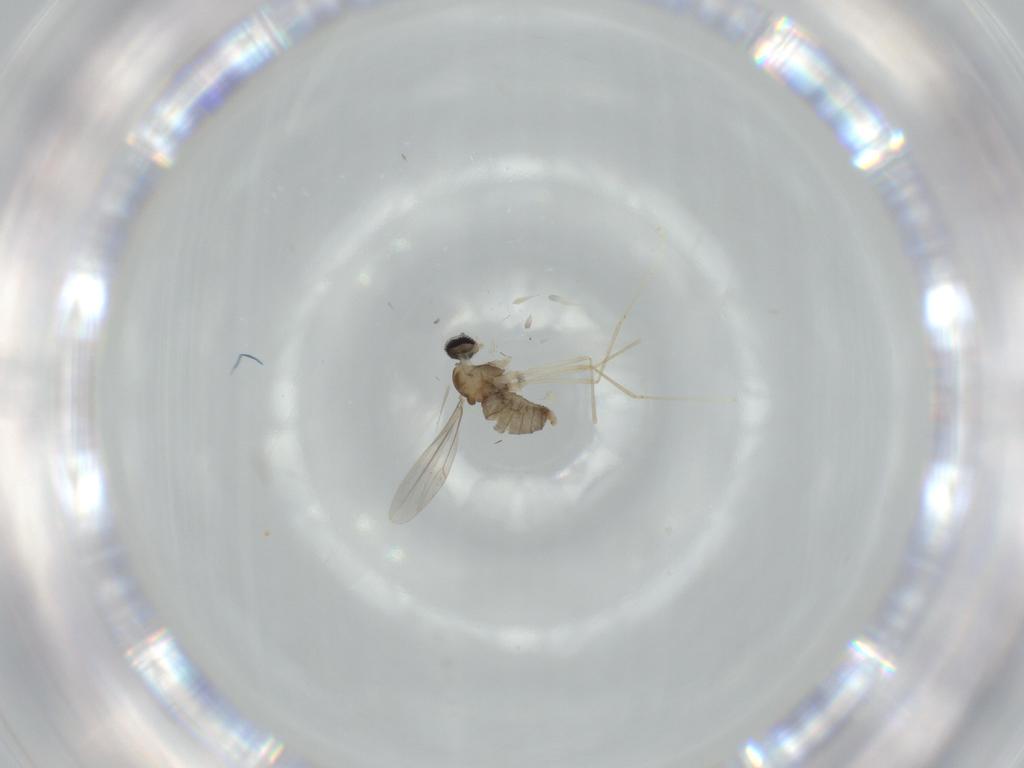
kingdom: Animalia
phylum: Arthropoda
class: Insecta
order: Diptera
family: Cecidomyiidae
